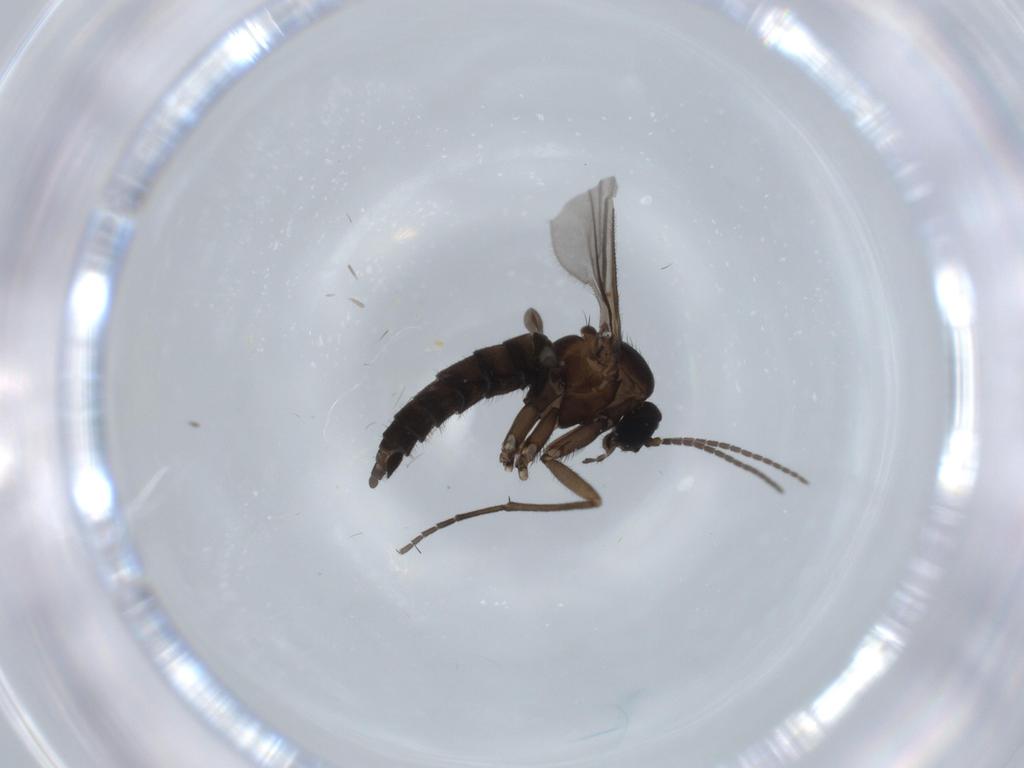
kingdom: Animalia
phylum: Arthropoda
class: Insecta
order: Diptera
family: Sciaridae
